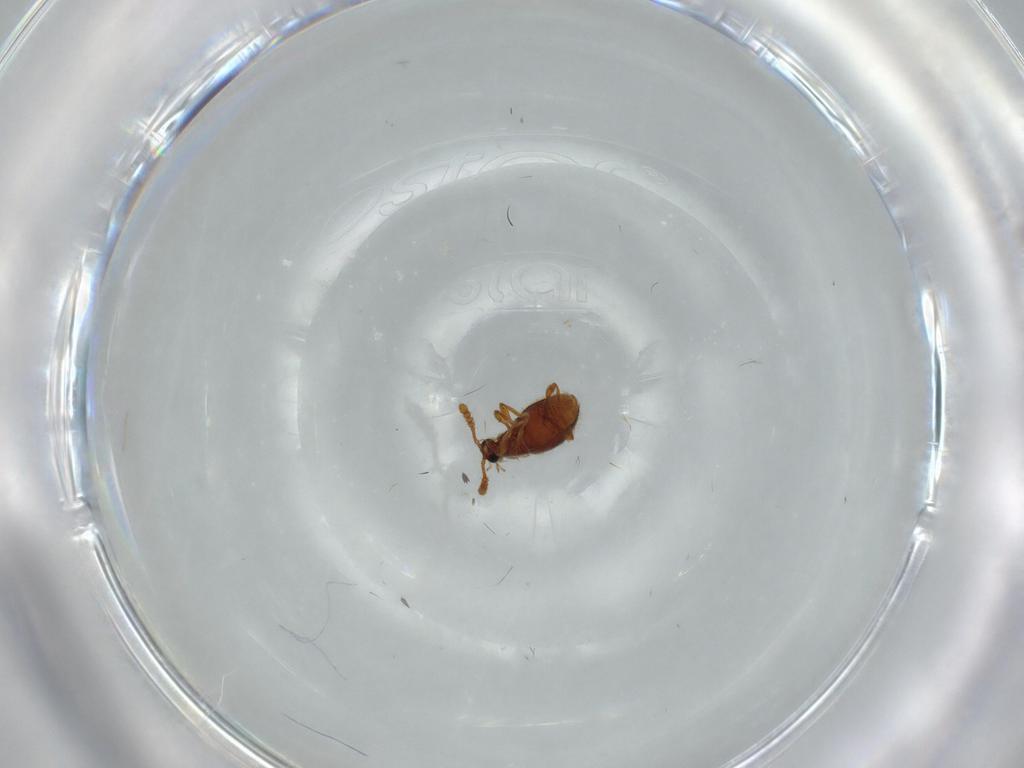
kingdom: Animalia
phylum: Arthropoda
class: Insecta
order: Coleoptera
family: Staphylinidae
